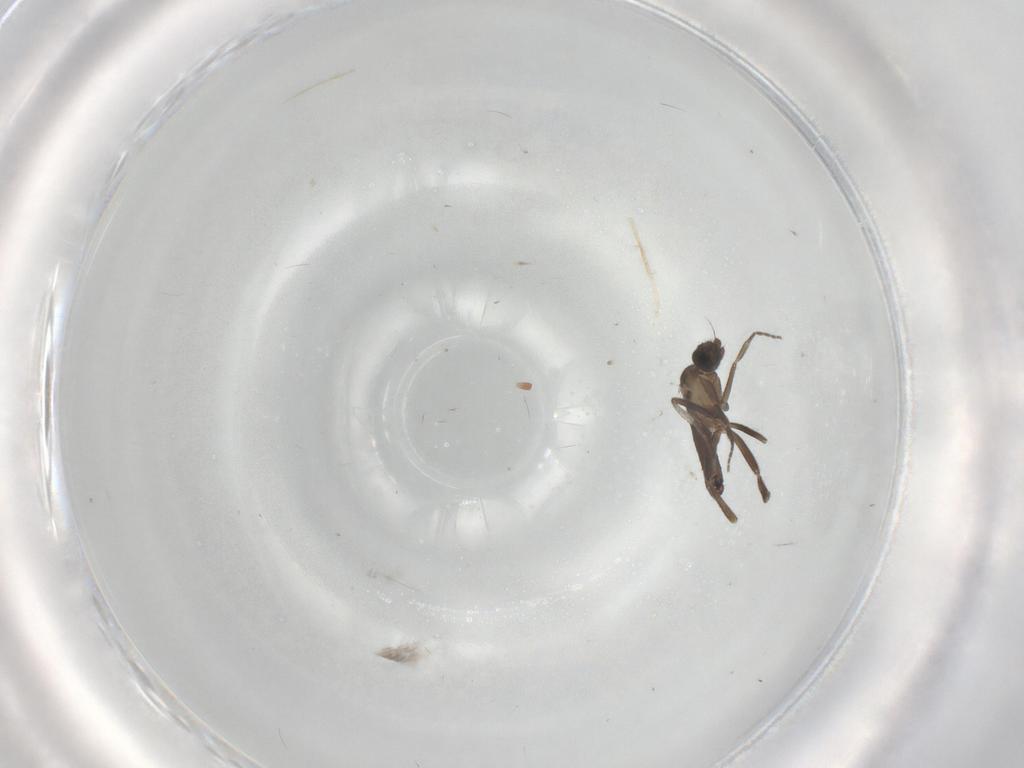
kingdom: Animalia
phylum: Arthropoda
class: Insecta
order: Diptera
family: Phoridae
